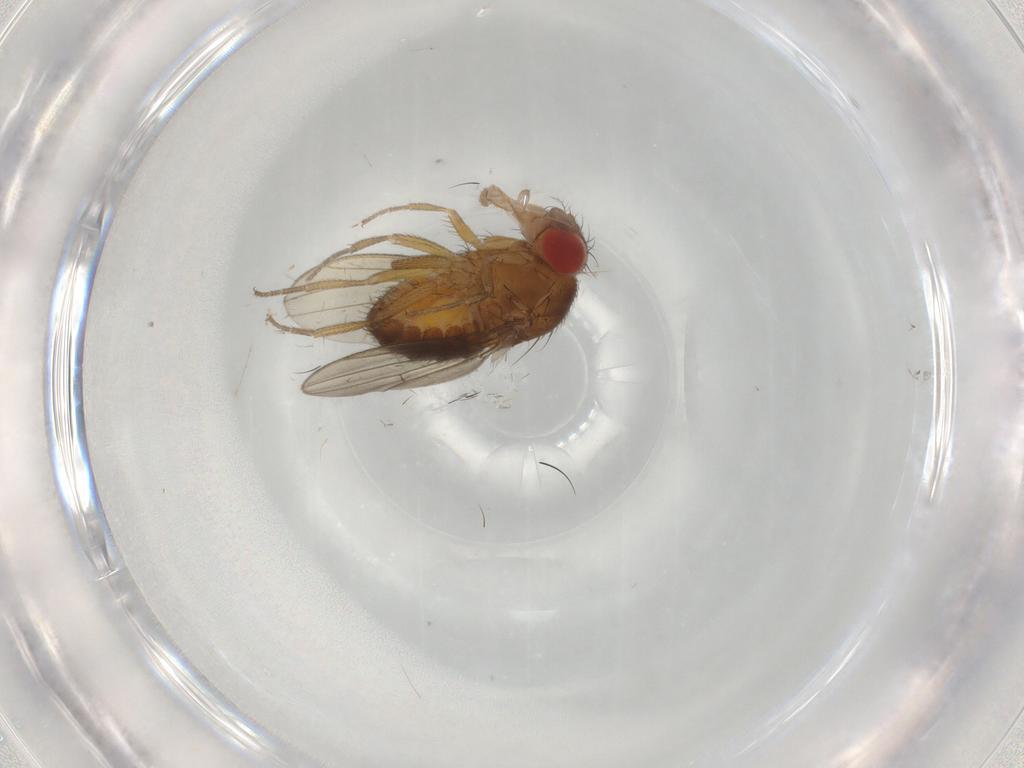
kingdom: Animalia
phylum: Arthropoda
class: Insecta
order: Diptera
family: Drosophilidae
